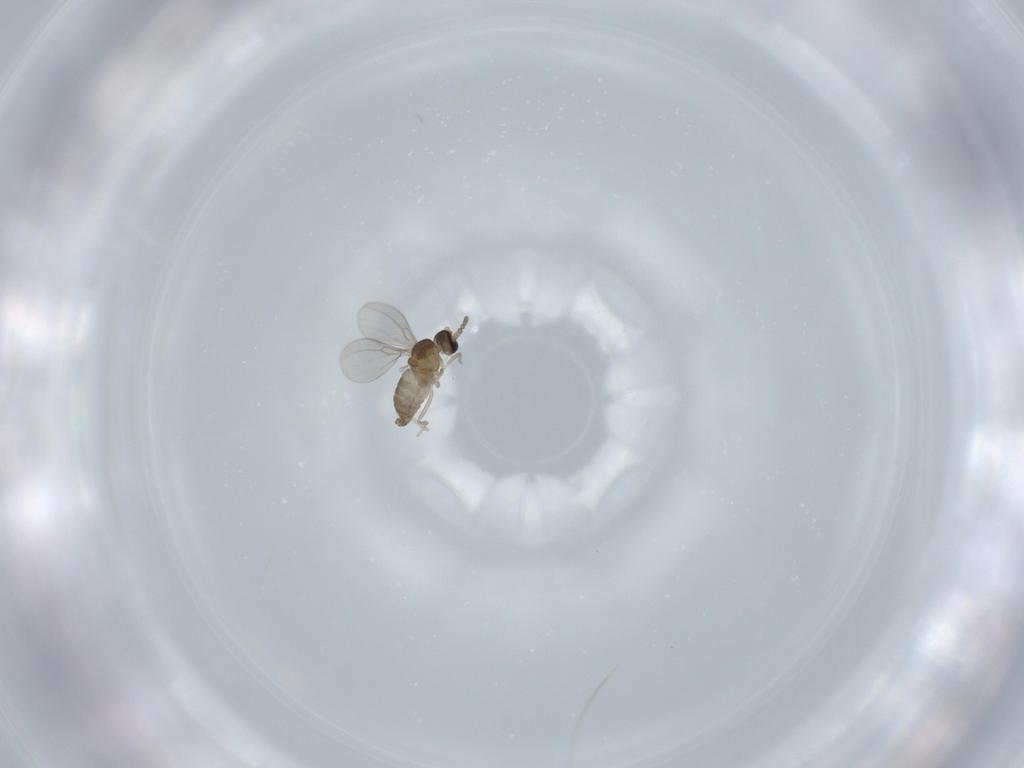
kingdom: Animalia
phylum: Arthropoda
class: Insecta
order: Diptera
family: Cecidomyiidae
